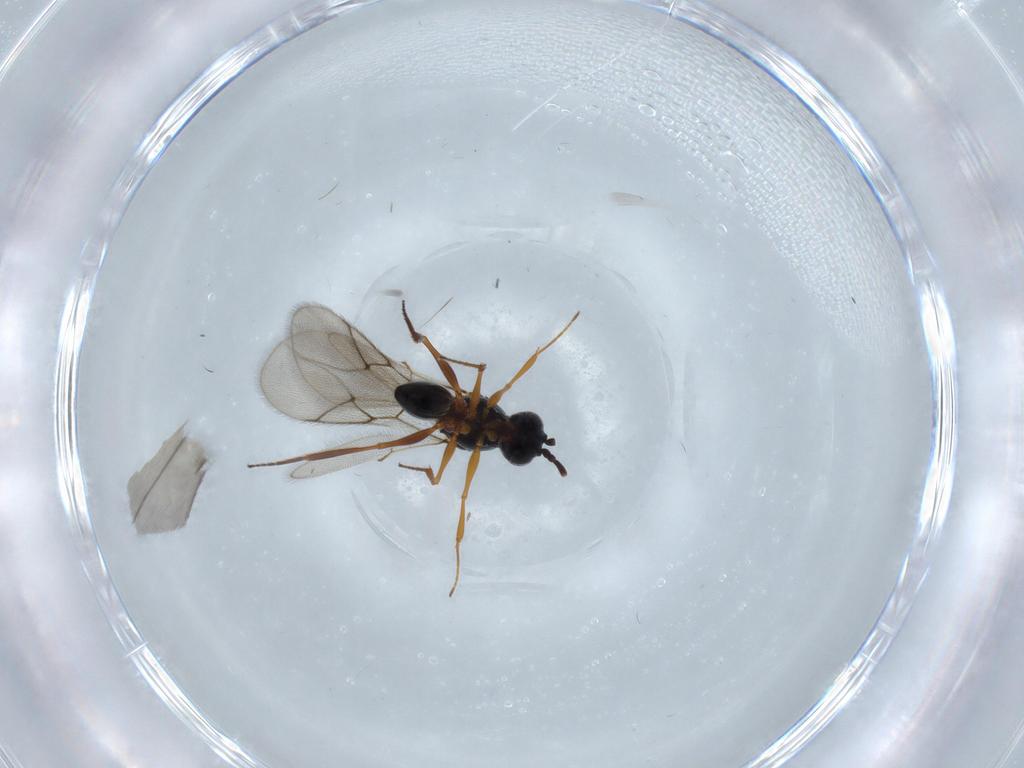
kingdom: Animalia
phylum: Arthropoda
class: Insecta
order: Hymenoptera
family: Figitidae
